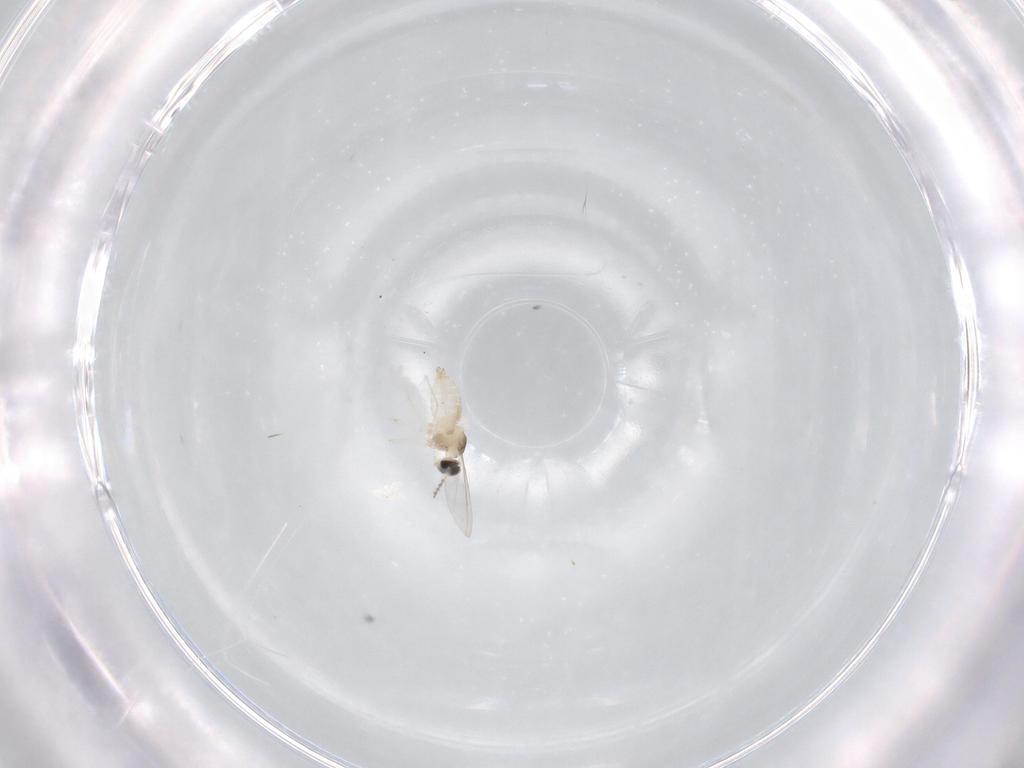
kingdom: Animalia
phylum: Arthropoda
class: Insecta
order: Diptera
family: Cecidomyiidae
